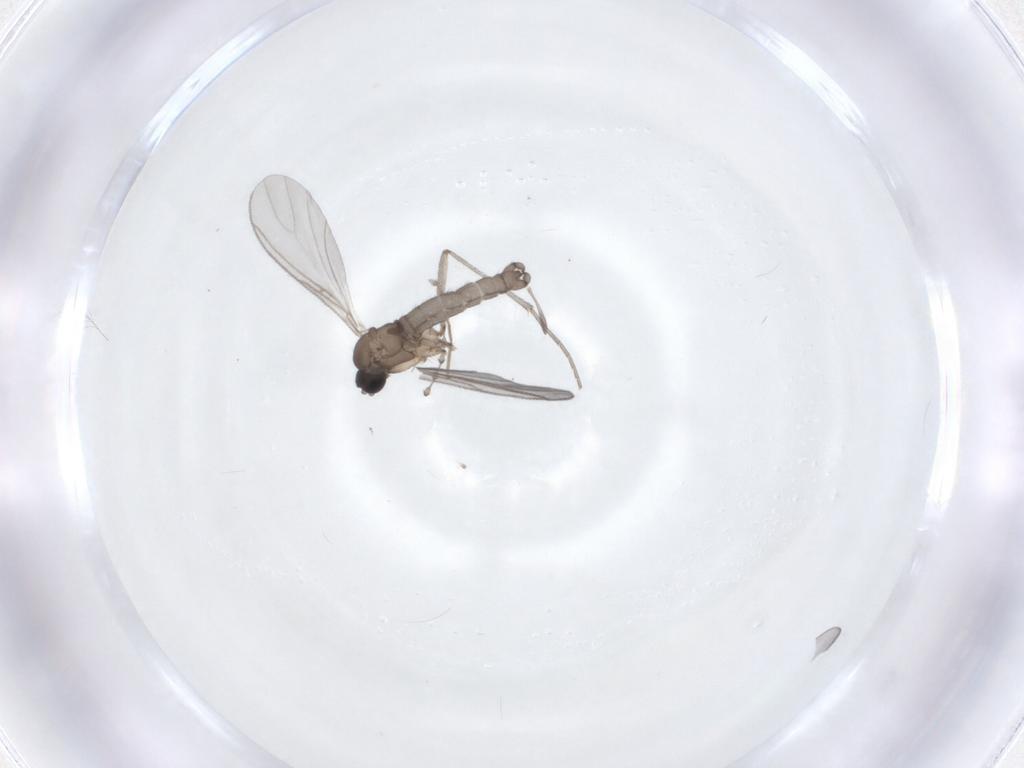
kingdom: Animalia
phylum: Arthropoda
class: Insecta
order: Diptera
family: Sciaridae
